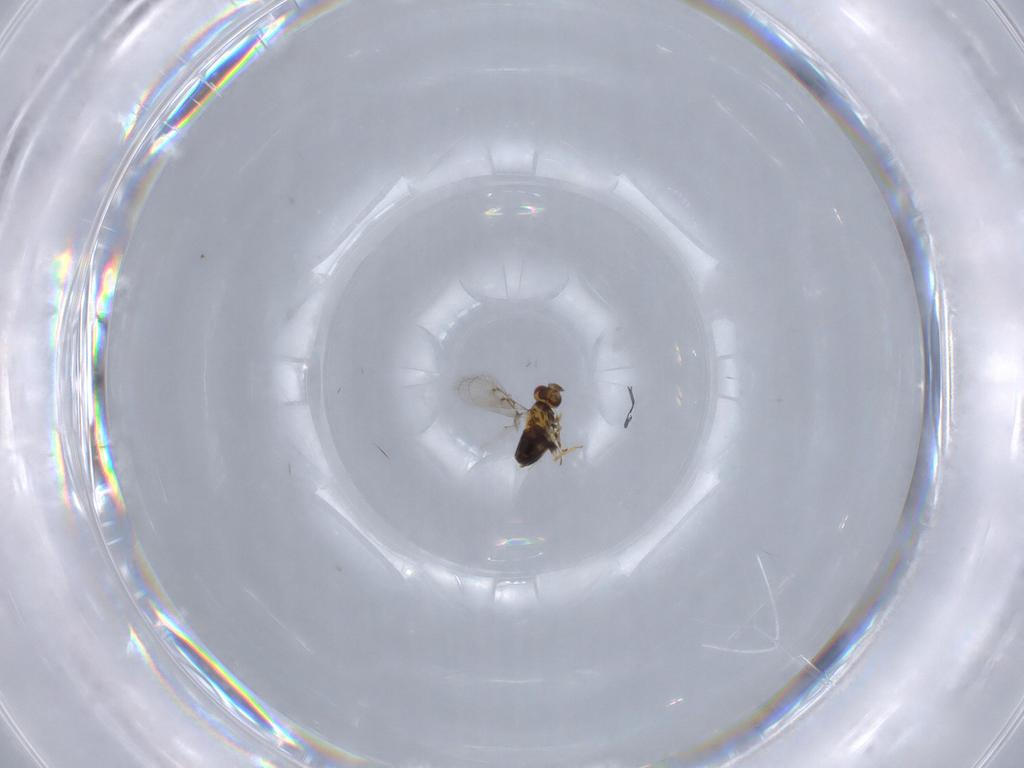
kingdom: Animalia
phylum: Arthropoda
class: Insecta
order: Hymenoptera
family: Trichogrammatidae
